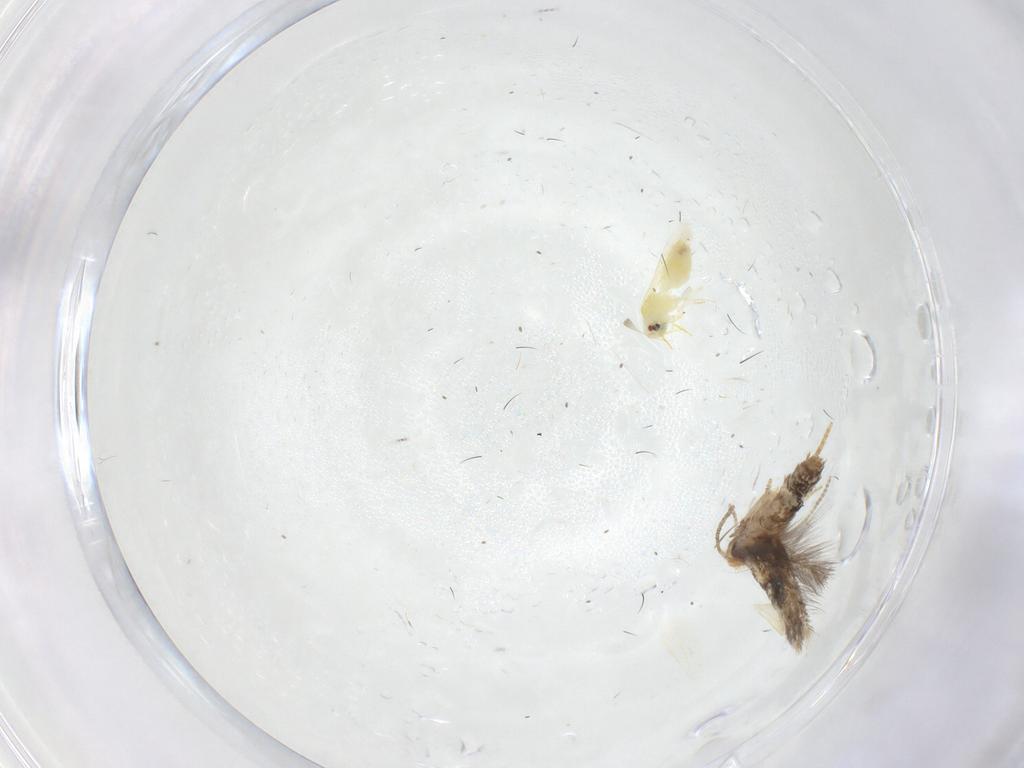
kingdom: Animalia
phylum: Arthropoda
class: Insecta
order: Lepidoptera
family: Nepticulidae
